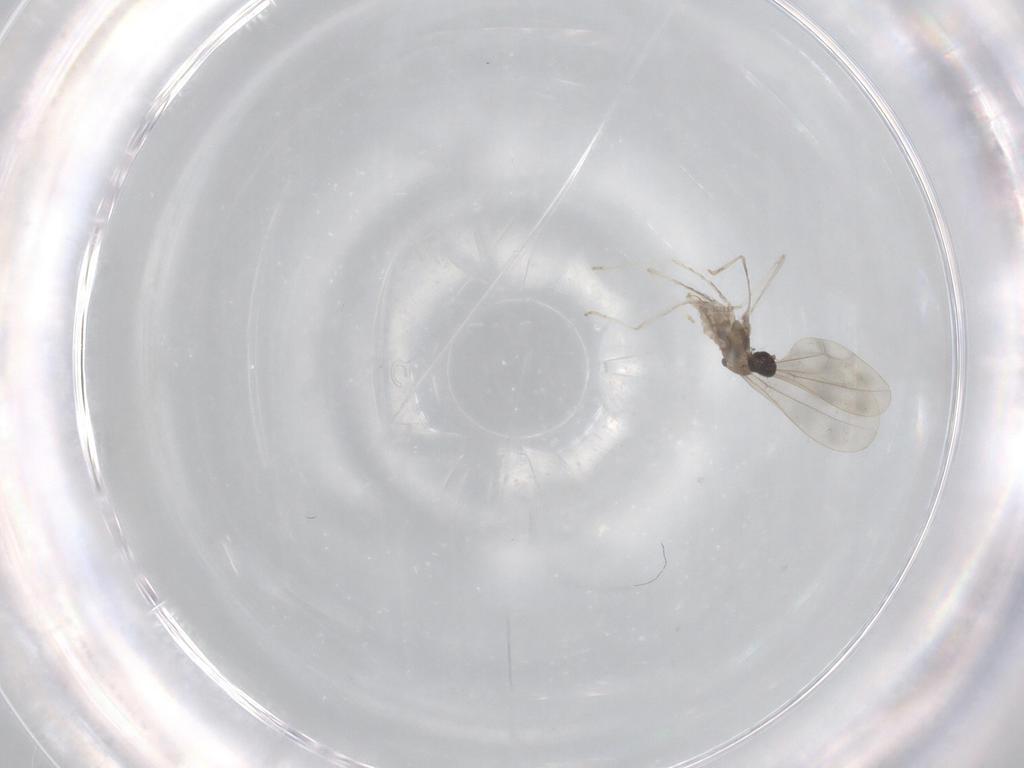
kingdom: Animalia
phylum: Arthropoda
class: Insecta
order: Diptera
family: Cecidomyiidae
